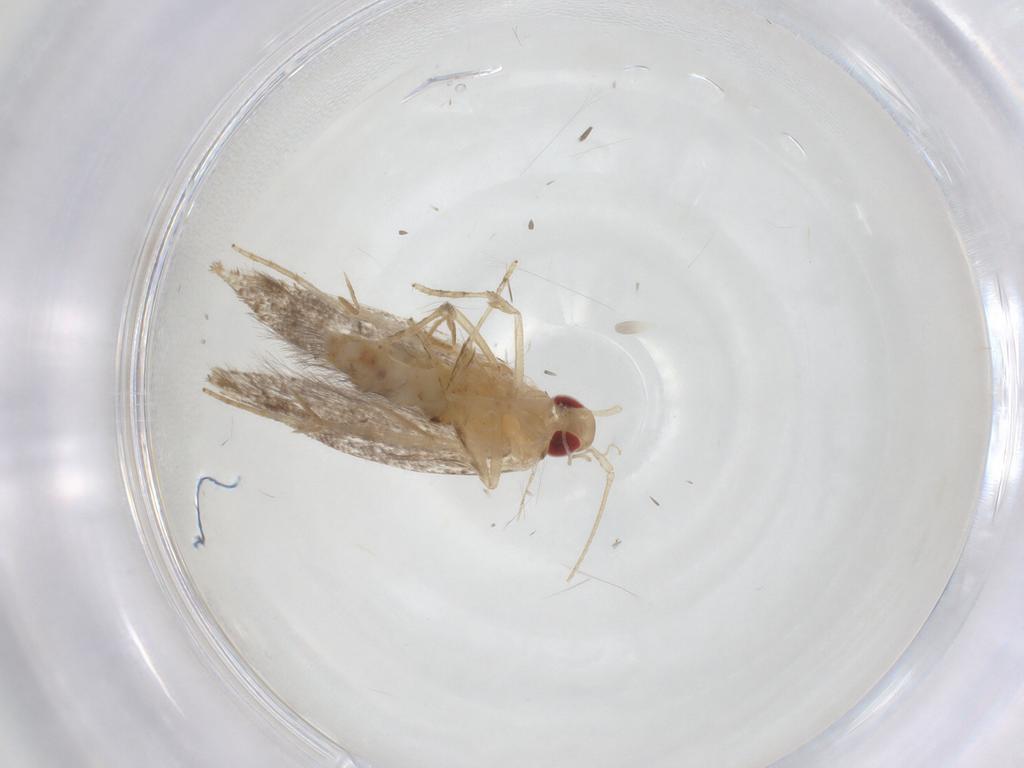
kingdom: Animalia
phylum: Arthropoda
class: Insecta
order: Lepidoptera
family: Cosmopterigidae
